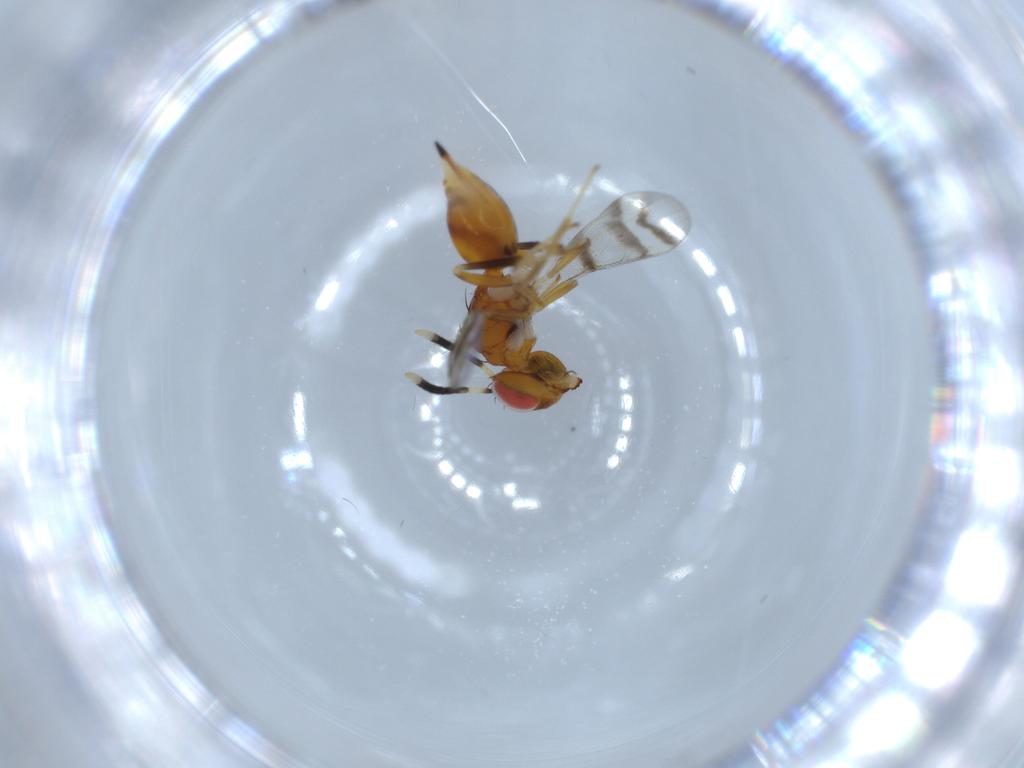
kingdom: Animalia
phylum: Arthropoda
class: Insecta
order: Hymenoptera
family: Diparidae
